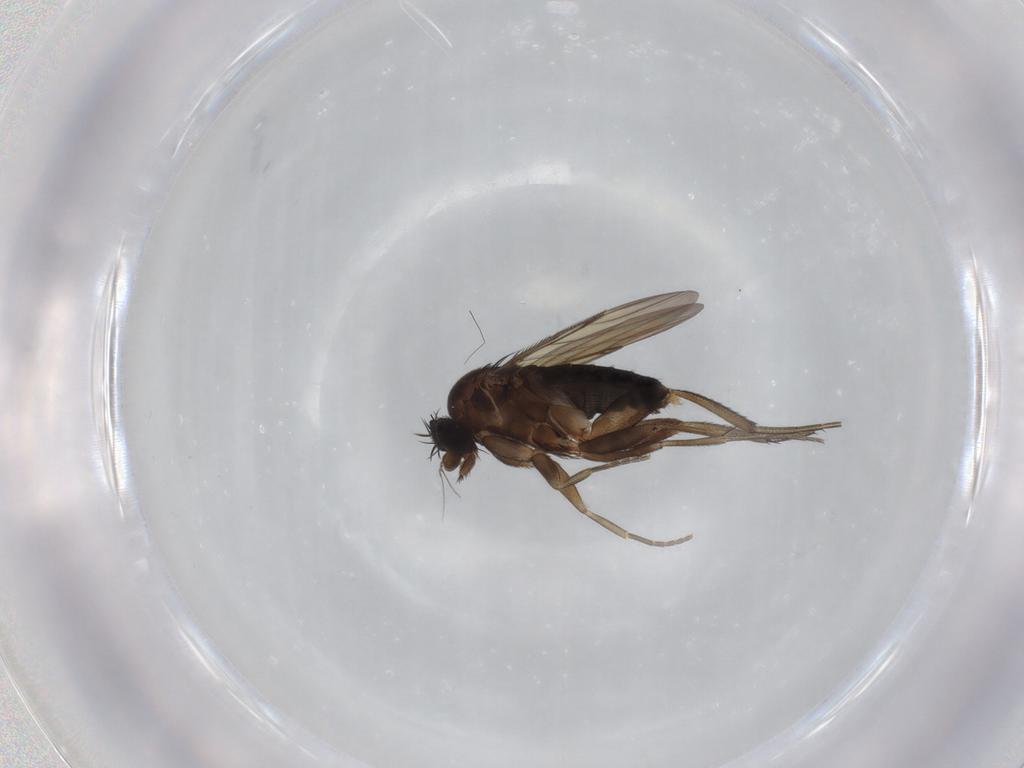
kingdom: Animalia
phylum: Arthropoda
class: Insecta
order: Diptera
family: Phoridae
